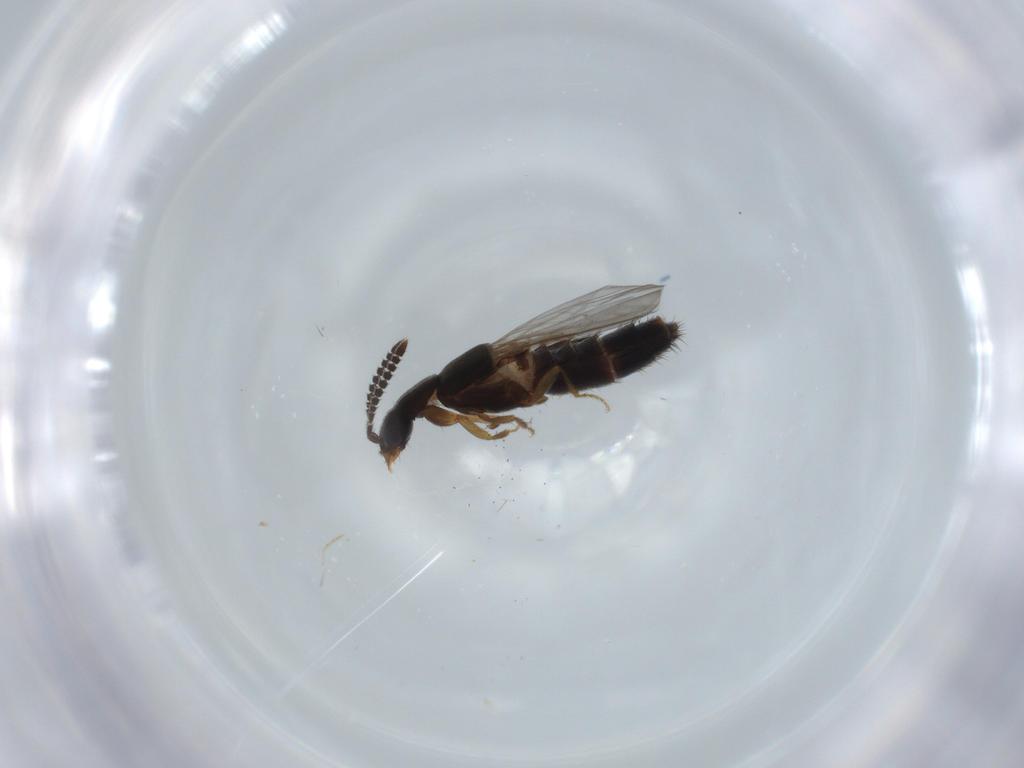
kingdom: Animalia
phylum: Arthropoda
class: Insecta
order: Coleoptera
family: Staphylinidae
